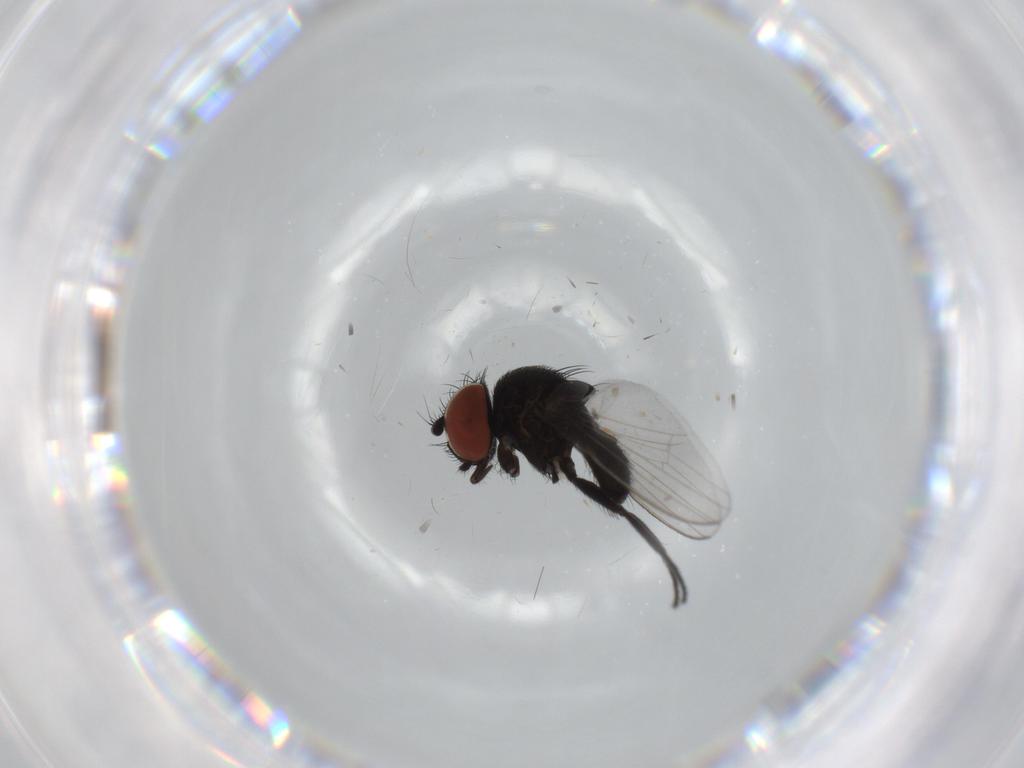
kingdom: Animalia
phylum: Arthropoda
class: Insecta
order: Diptera
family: Milichiidae
